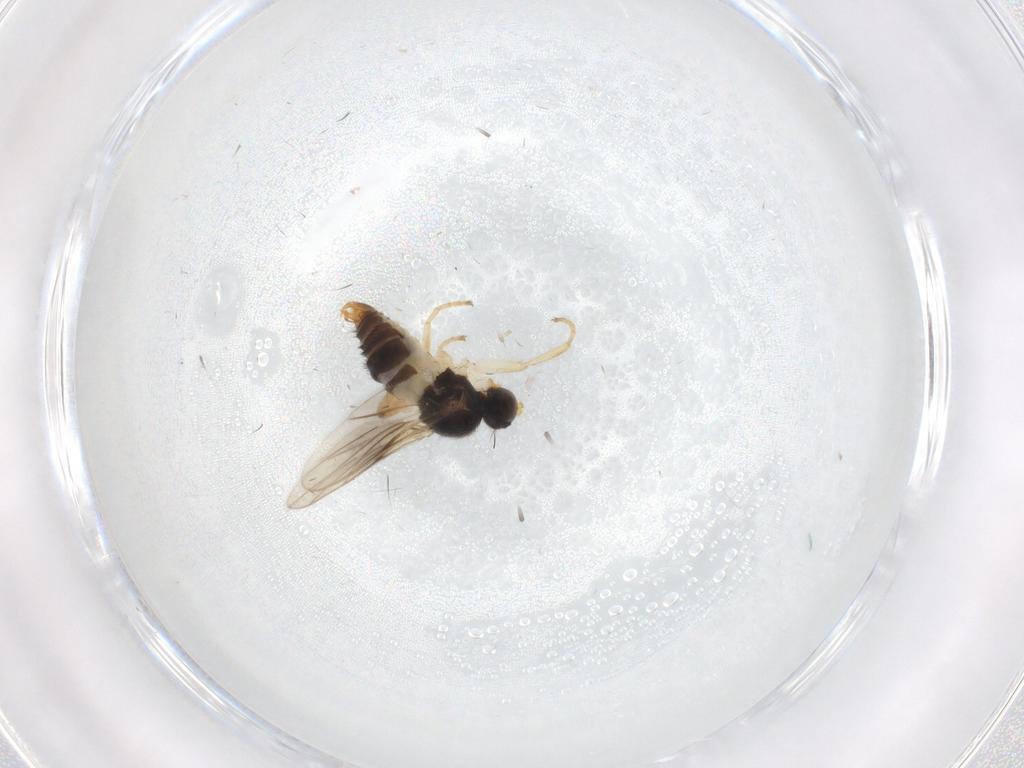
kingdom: Animalia
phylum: Arthropoda
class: Insecta
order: Diptera
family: Hybotidae
